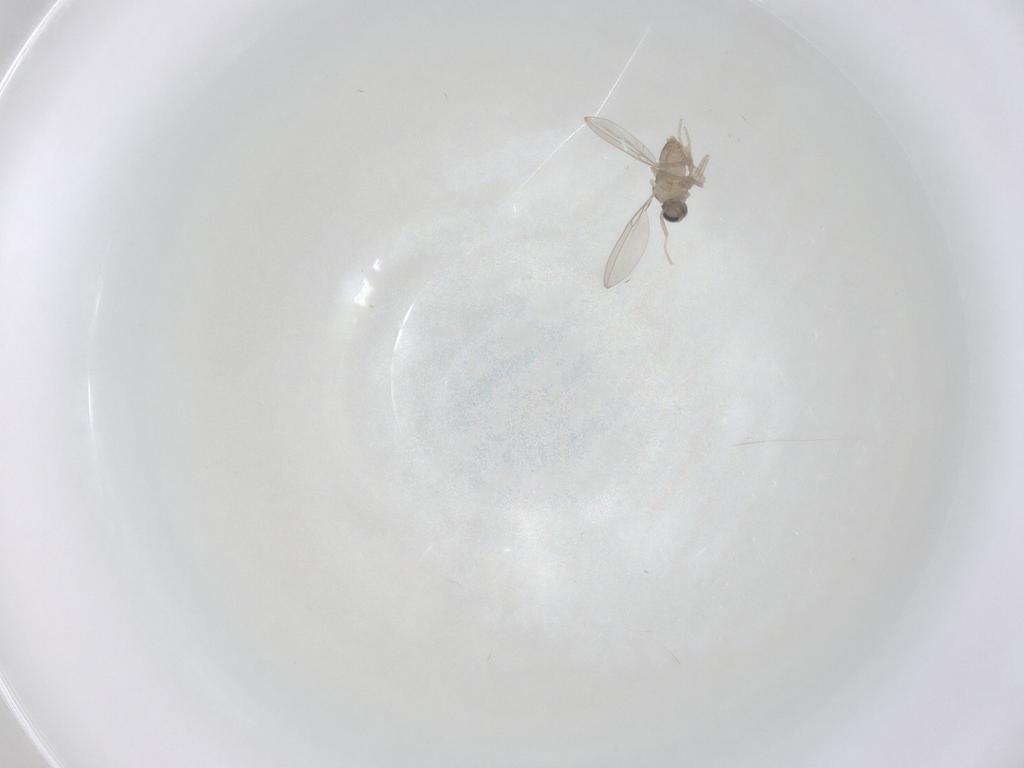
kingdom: Animalia
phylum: Arthropoda
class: Insecta
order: Diptera
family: Cecidomyiidae
